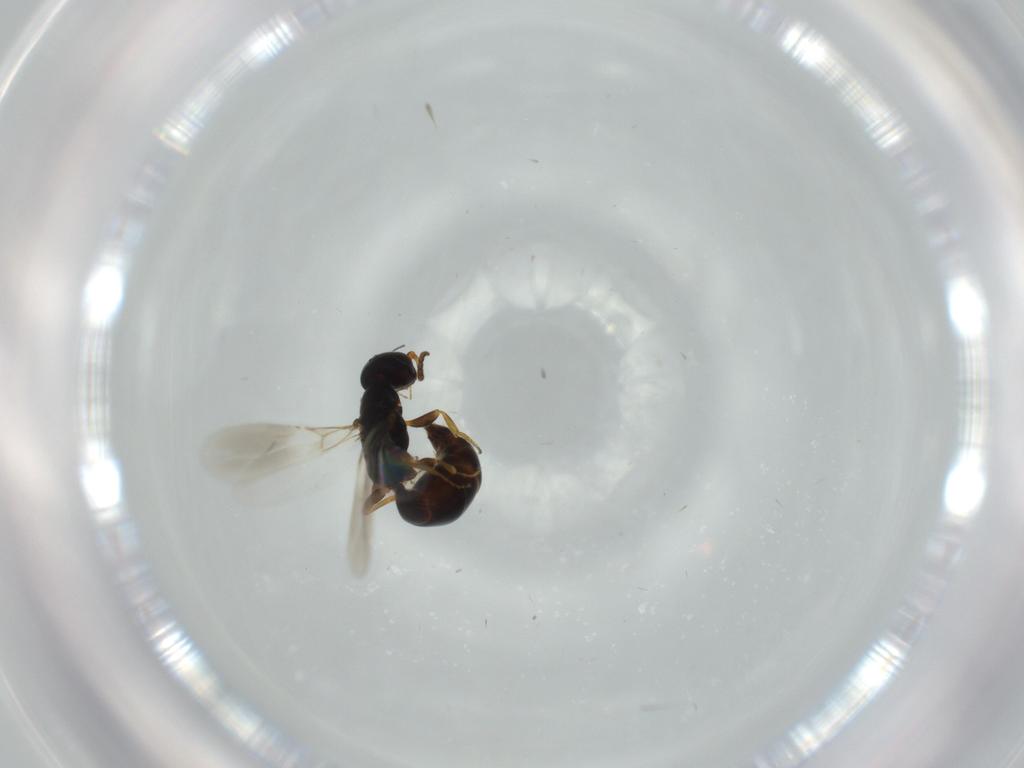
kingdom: Animalia
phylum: Arthropoda
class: Insecta
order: Hymenoptera
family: Bethylidae
